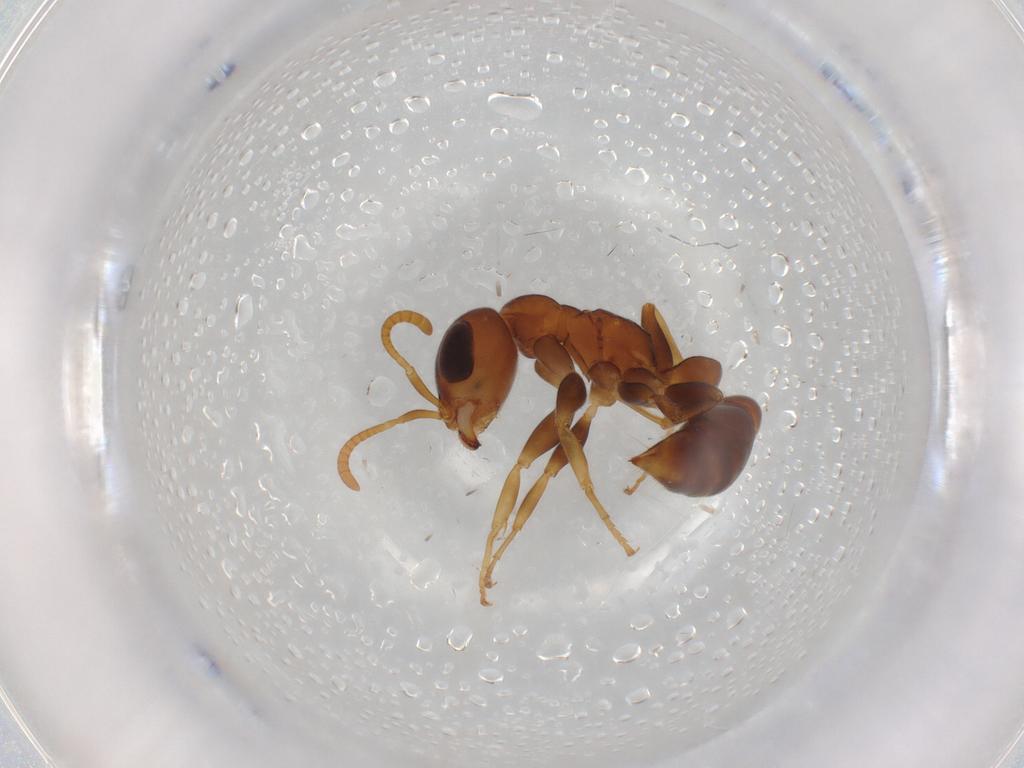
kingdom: Animalia
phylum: Arthropoda
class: Insecta
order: Hymenoptera
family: Formicidae
